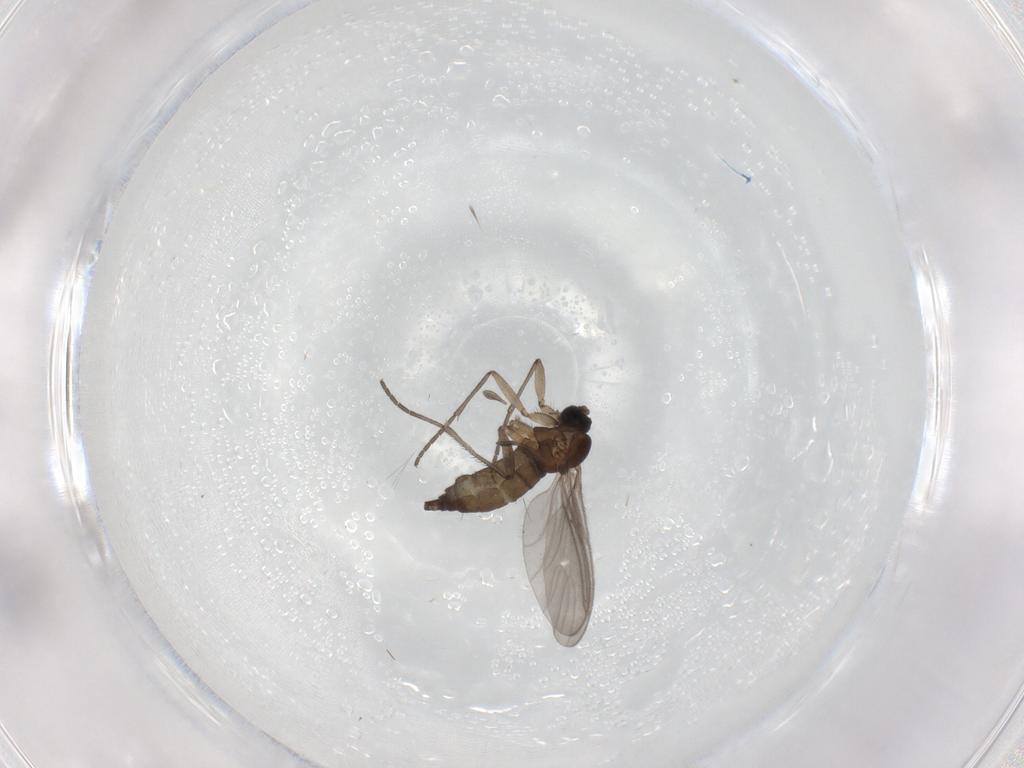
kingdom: Animalia
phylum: Arthropoda
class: Insecta
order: Diptera
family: Sciaridae
